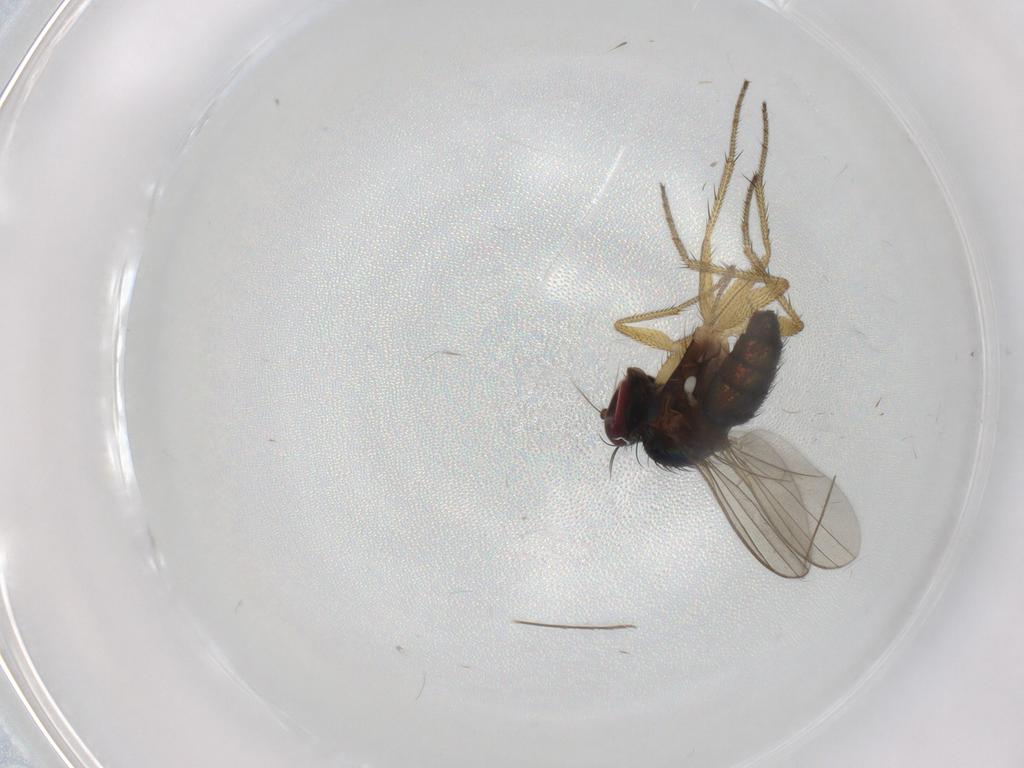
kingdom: Animalia
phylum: Arthropoda
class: Insecta
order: Diptera
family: Dolichopodidae
